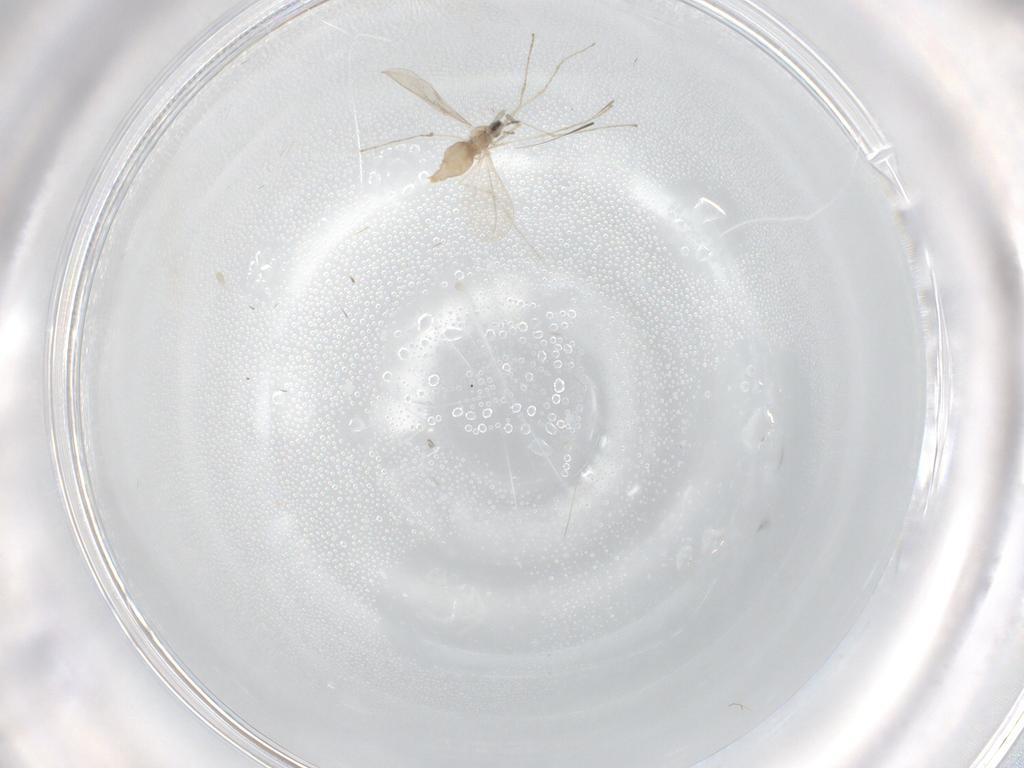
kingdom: Animalia
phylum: Arthropoda
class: Insecta
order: Diptera
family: Cecidomyiidae
